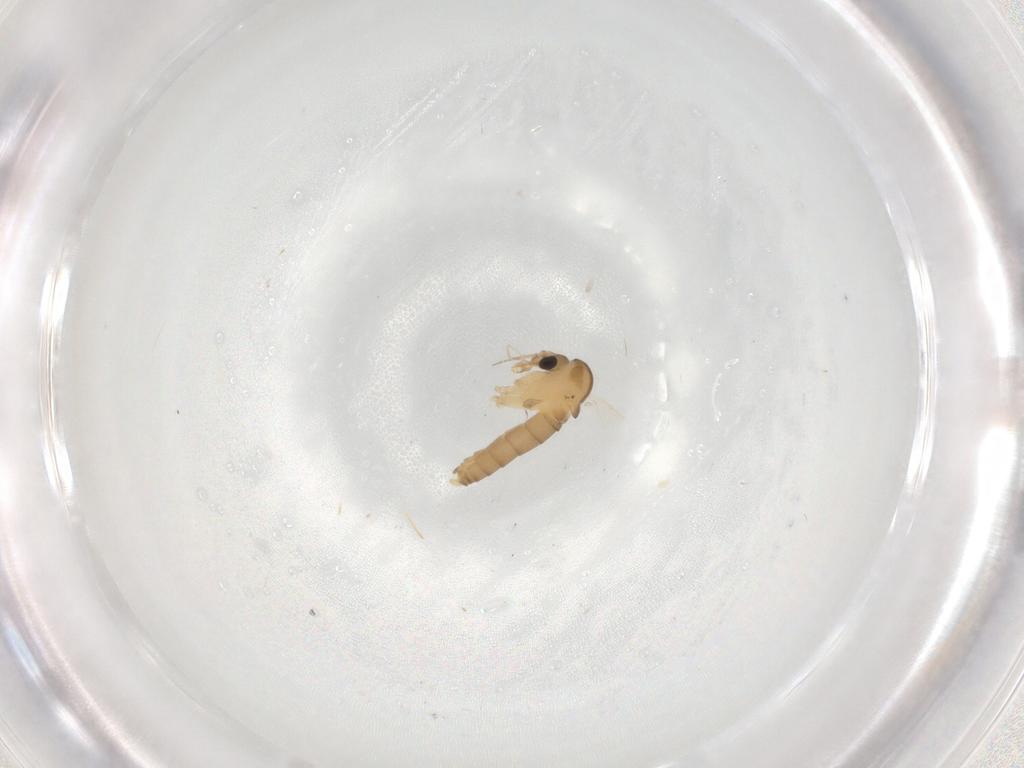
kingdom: Animalia
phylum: Arthropoda
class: Insecta
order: Diptera
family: Psychodidae
